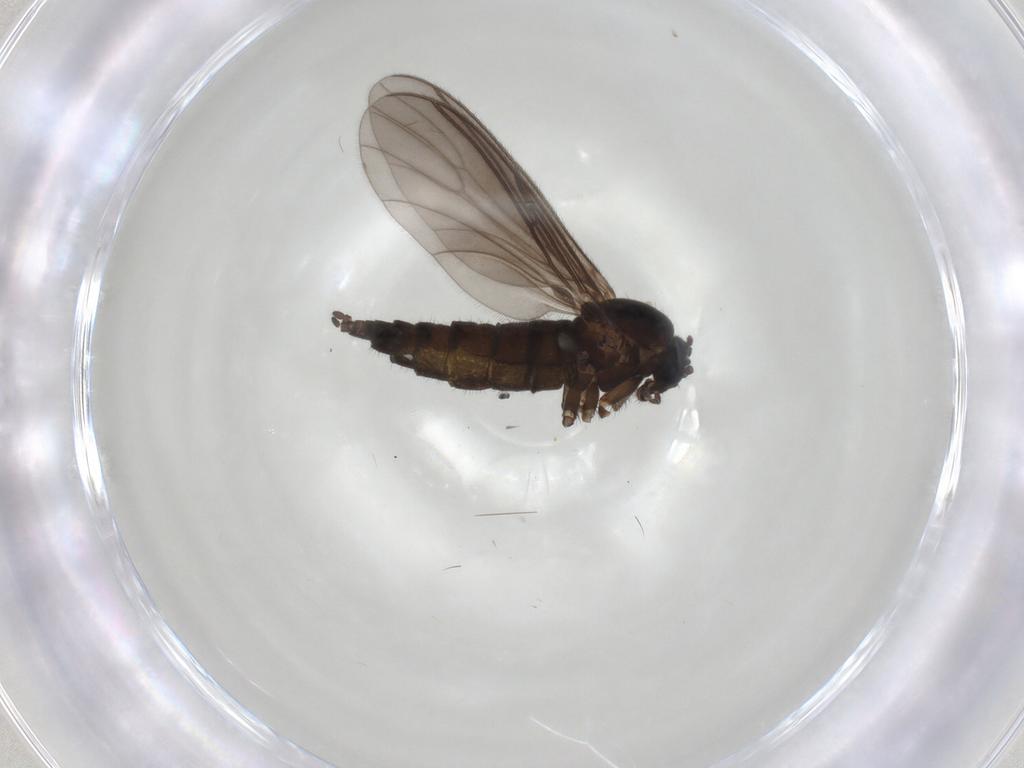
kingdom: Animalia
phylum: Arthropoda
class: Insecta
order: Diptera
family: Sciaridae
